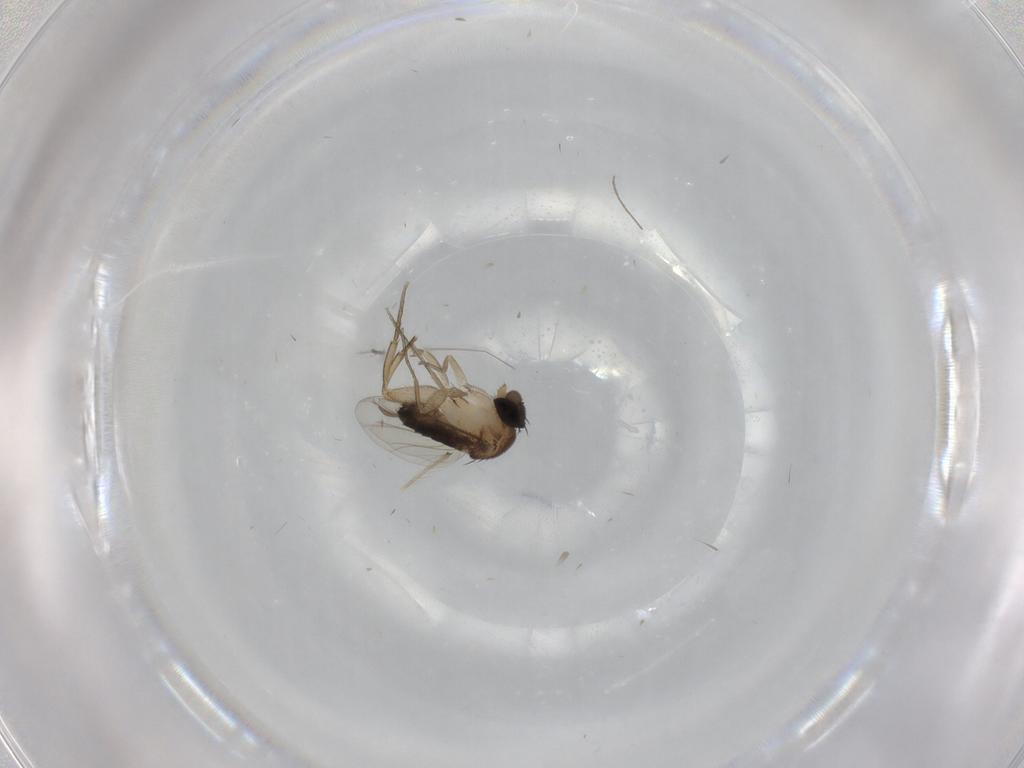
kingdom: Animalia
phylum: Arthropoda
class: Insecta
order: Diptera
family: Chironomidae
